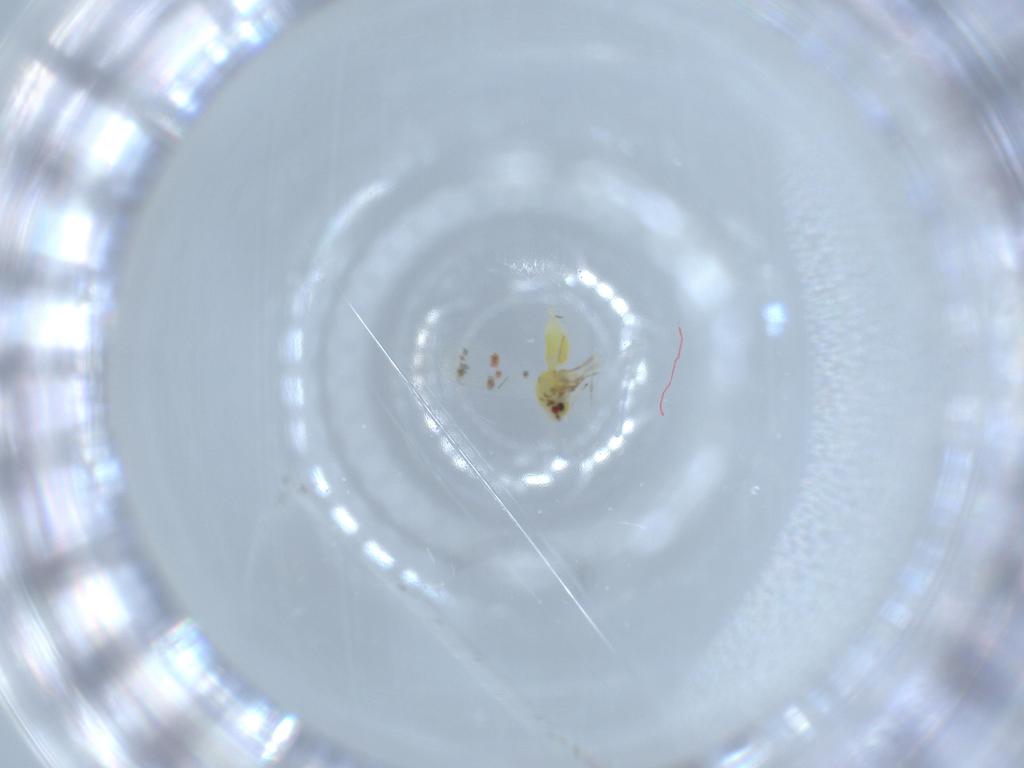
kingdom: Animalia
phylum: Arthropoda
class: Insecta
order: Hemiptera
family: Aleyrodidae
